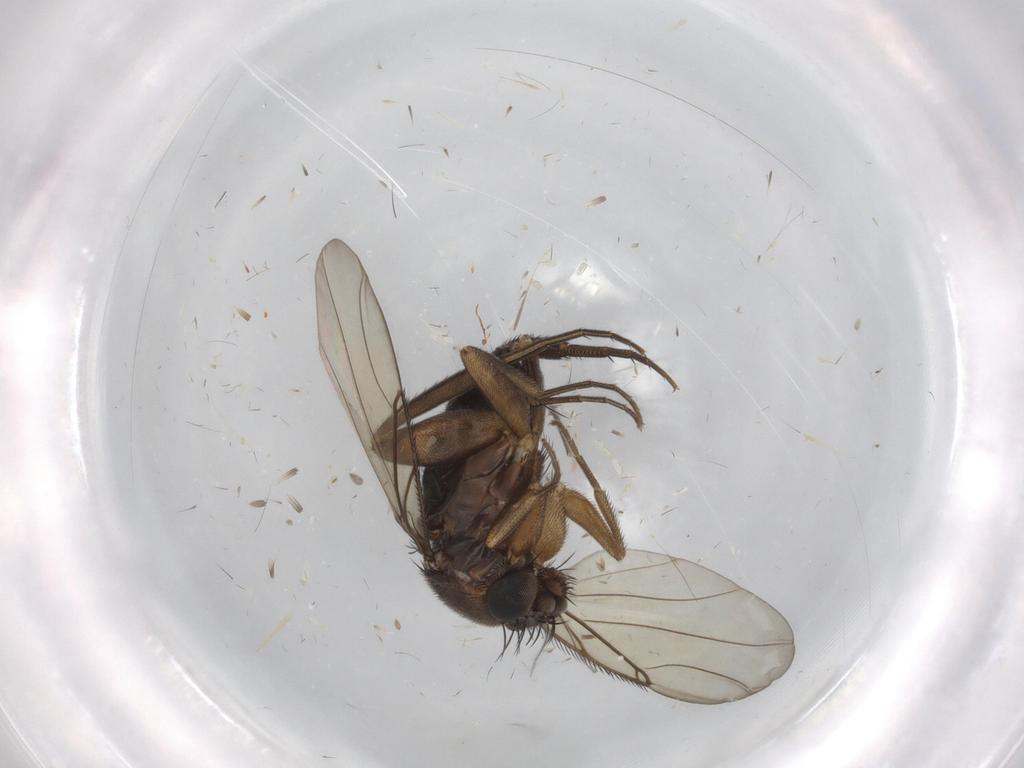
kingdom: Animalia
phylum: Arthropoda
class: Insecta
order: Diptera
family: Phoridae
